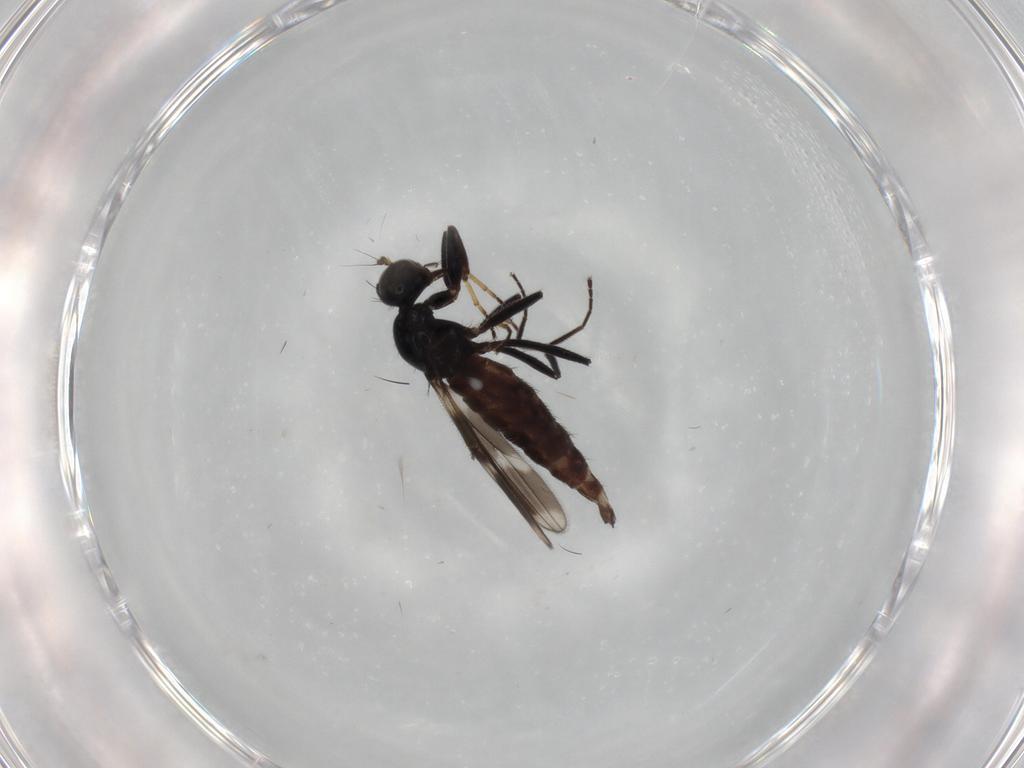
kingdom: Animalia
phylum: Arthropoda
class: Insecta
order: Diptera
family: Hybotidae
